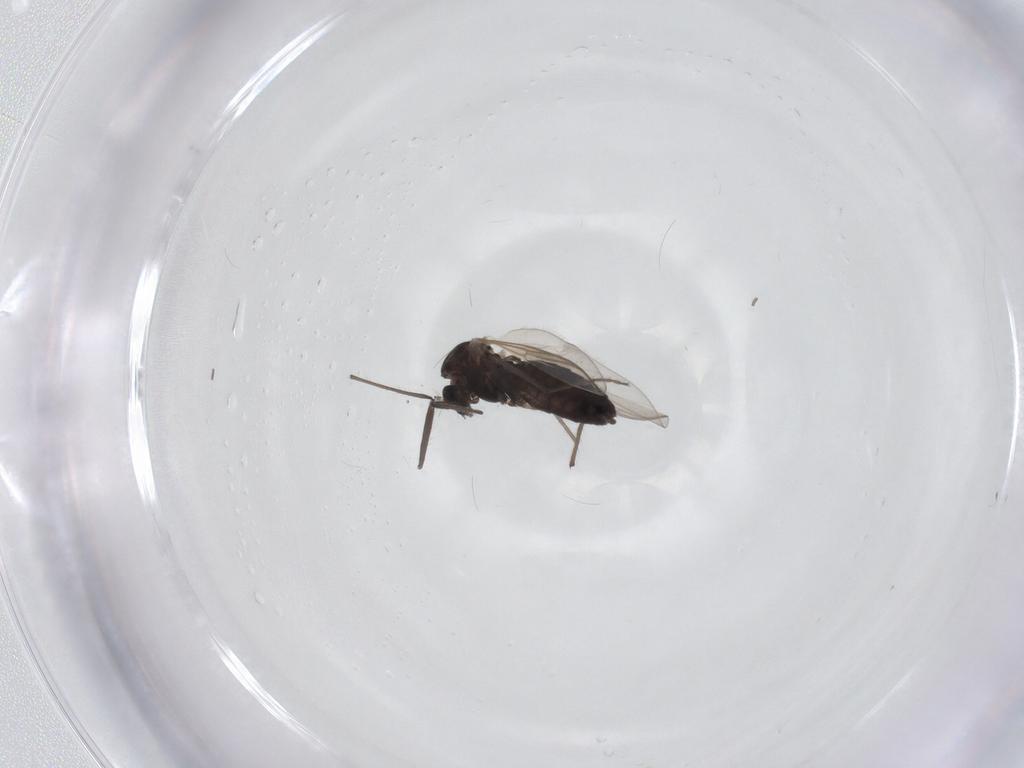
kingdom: Animalia
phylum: Arthropoda
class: Insecta
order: Diptera
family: Chironomidae
